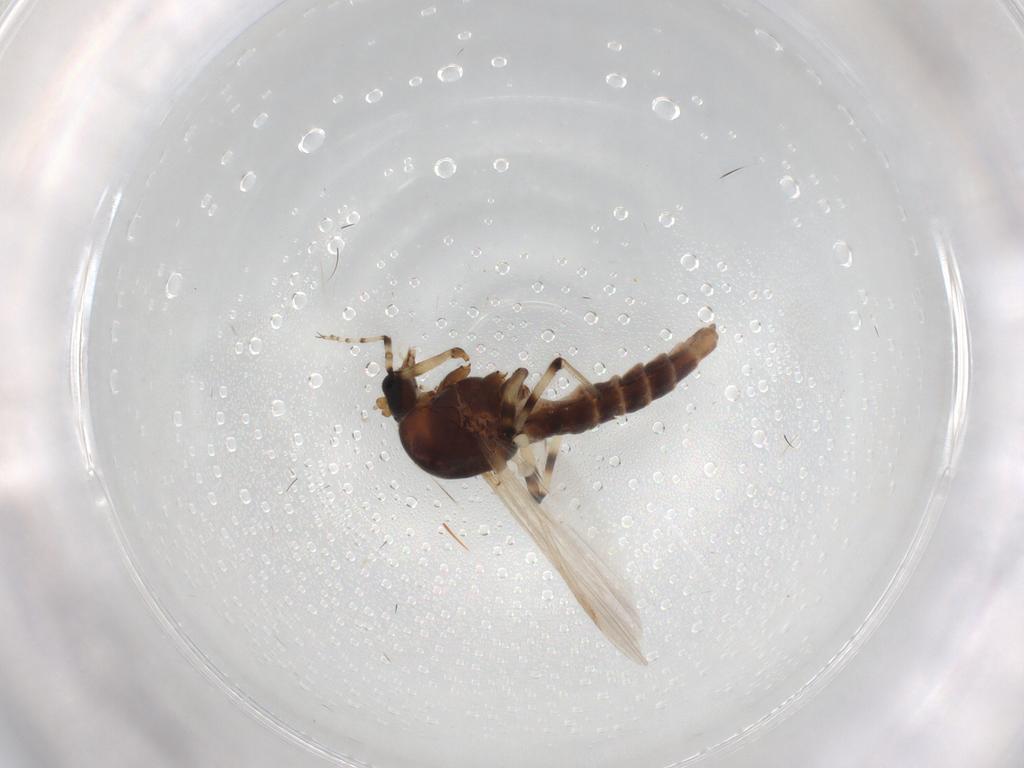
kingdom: Animalia
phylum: Arthropoda
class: Insecta
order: Diptera
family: Ceratopogonidae
